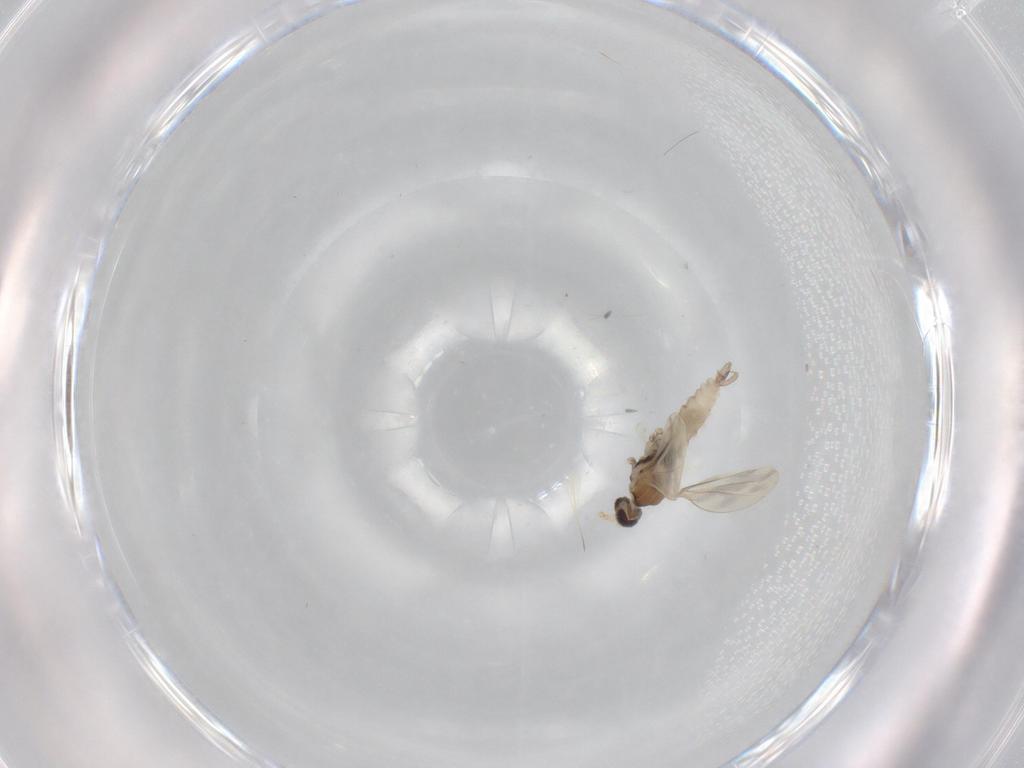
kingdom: Animalia
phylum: Arthropoda
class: Insecta
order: Diptera
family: Cecidomyiidae
